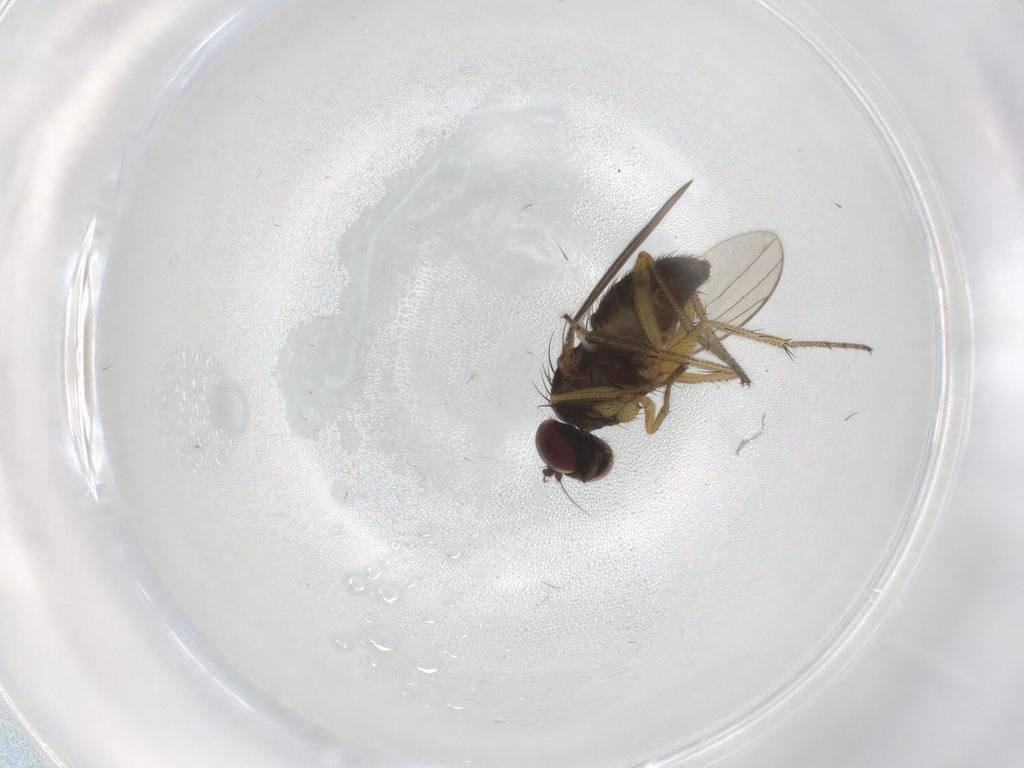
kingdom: Animalia
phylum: Arthropoda
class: Insecta
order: Diptera
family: Dolichopodidae
